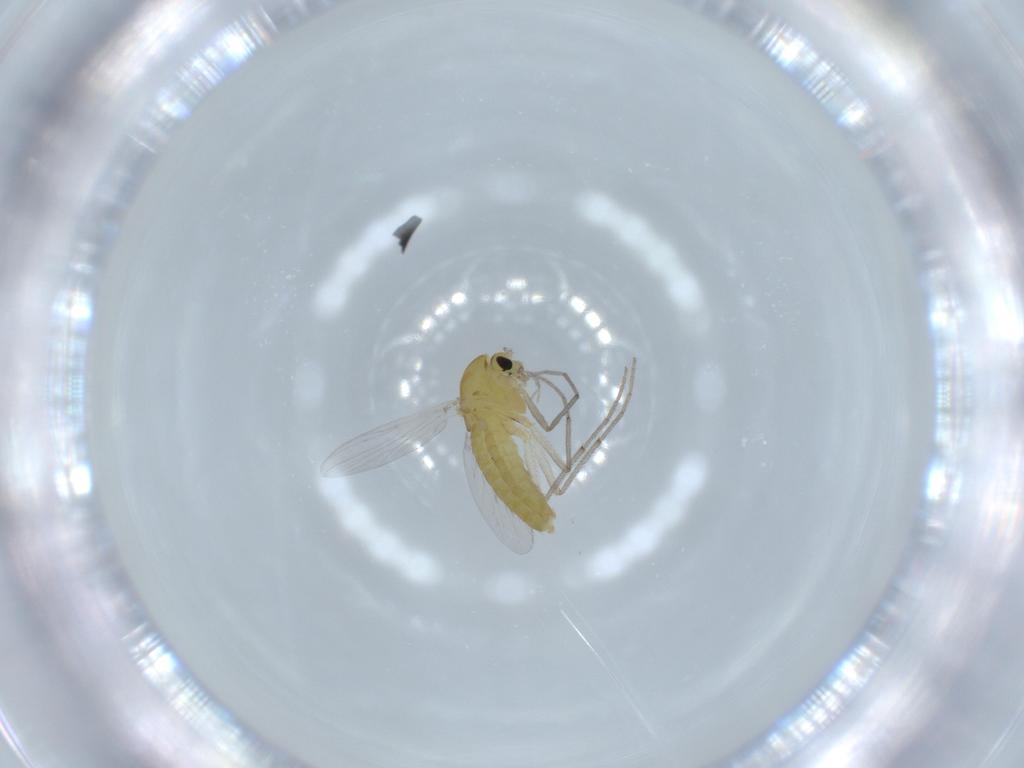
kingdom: Animalia
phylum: Arthropoda
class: Insecta
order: Diptera
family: Chironomidae
